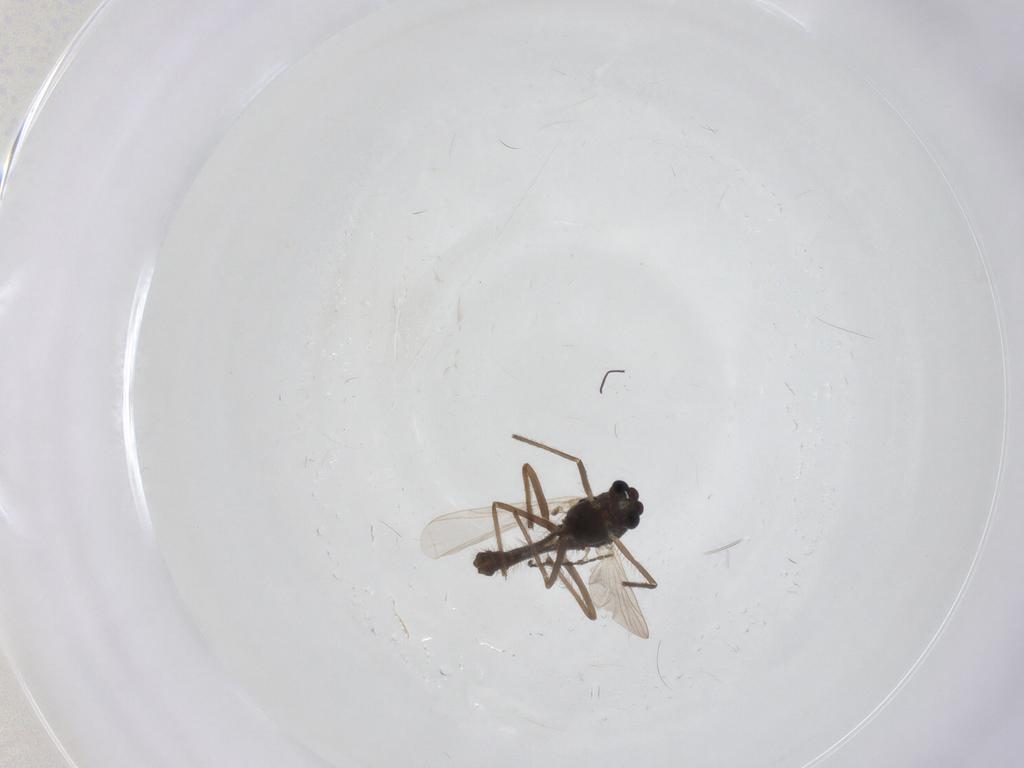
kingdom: Animalia
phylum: Arthropoda
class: Insecta
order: Diptera
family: Chironomidae
